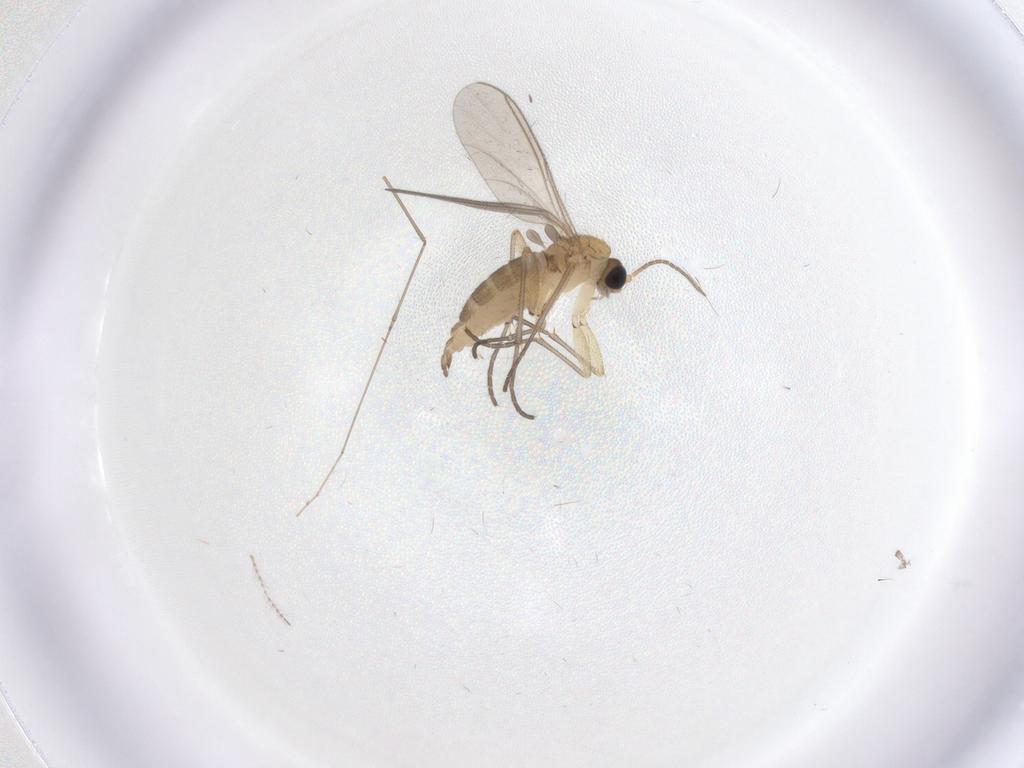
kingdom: Animalia
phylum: Arthropoda
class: Insecta
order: Diptera
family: Sciaridae
